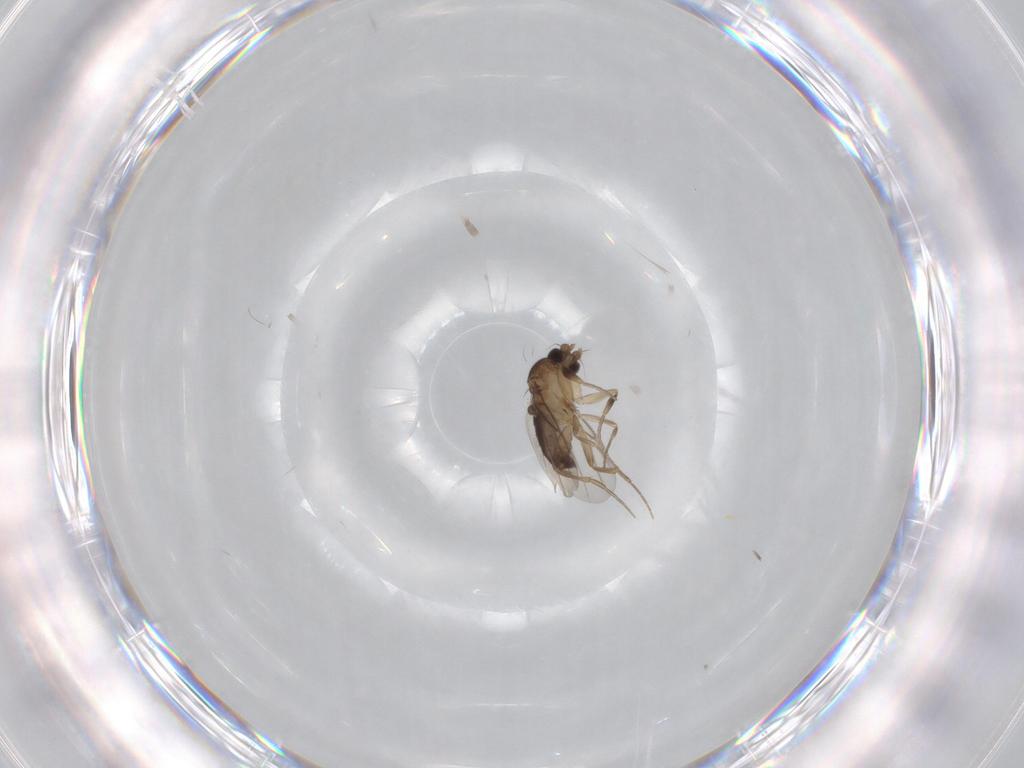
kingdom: Animalia
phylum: Arthropoda
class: Insecta
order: Diptera
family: Phoridae
